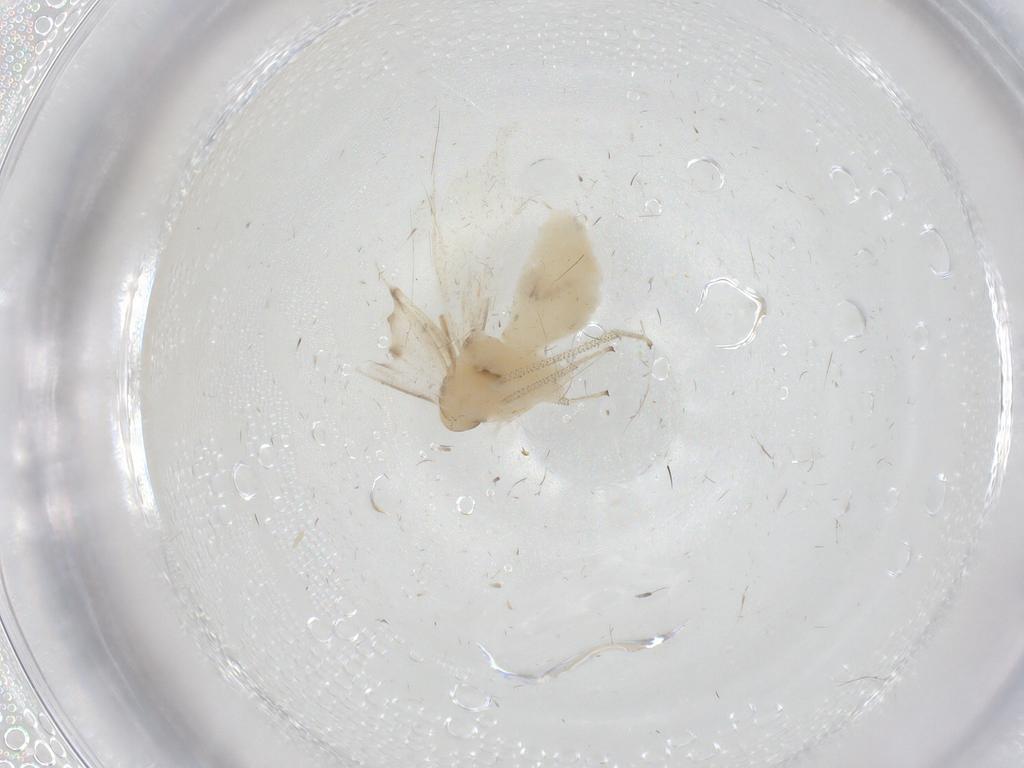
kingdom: Animalia
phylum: Arthropoda
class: Insecta
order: Psocodea
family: Caeciliusidae
